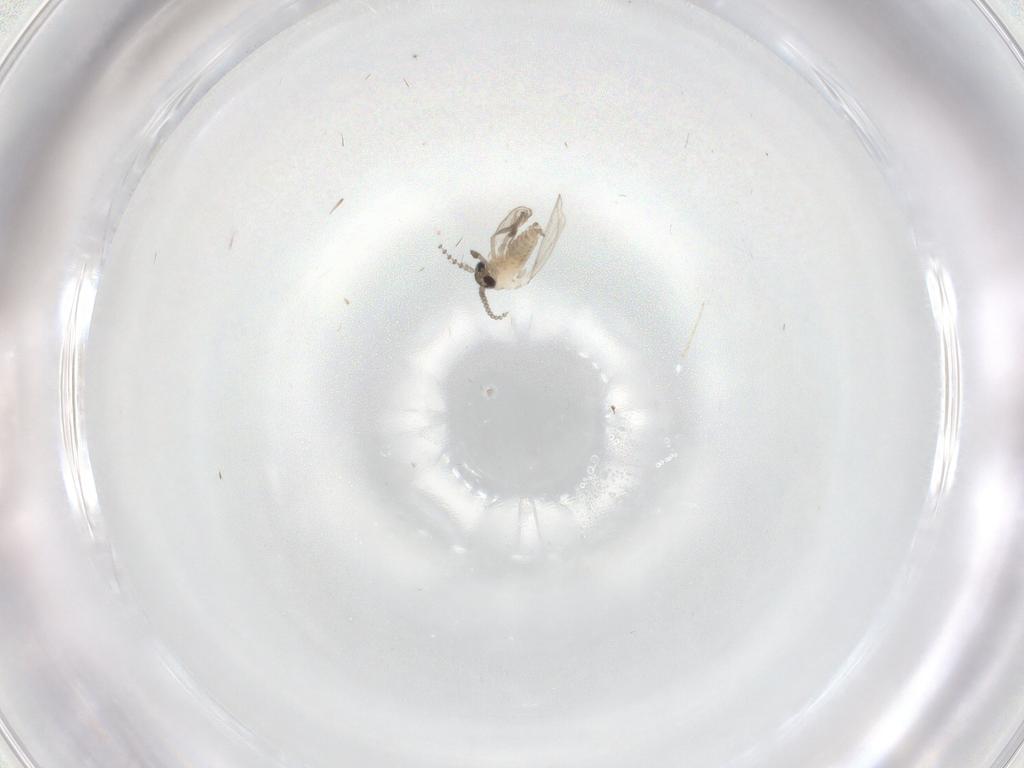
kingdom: Animalia
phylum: Arthropoda
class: Insecta
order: Diptera
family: Psychodidae
